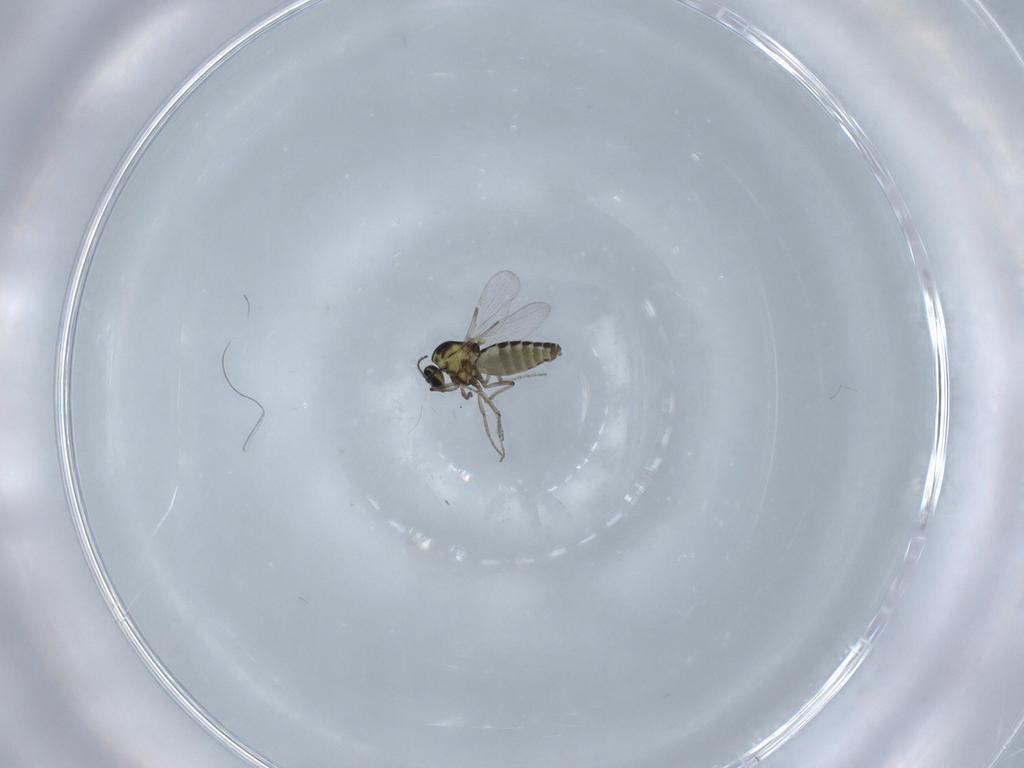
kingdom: Animalia
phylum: Arthropoda
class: Insecta
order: Diptera
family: Ceratopogonidae
